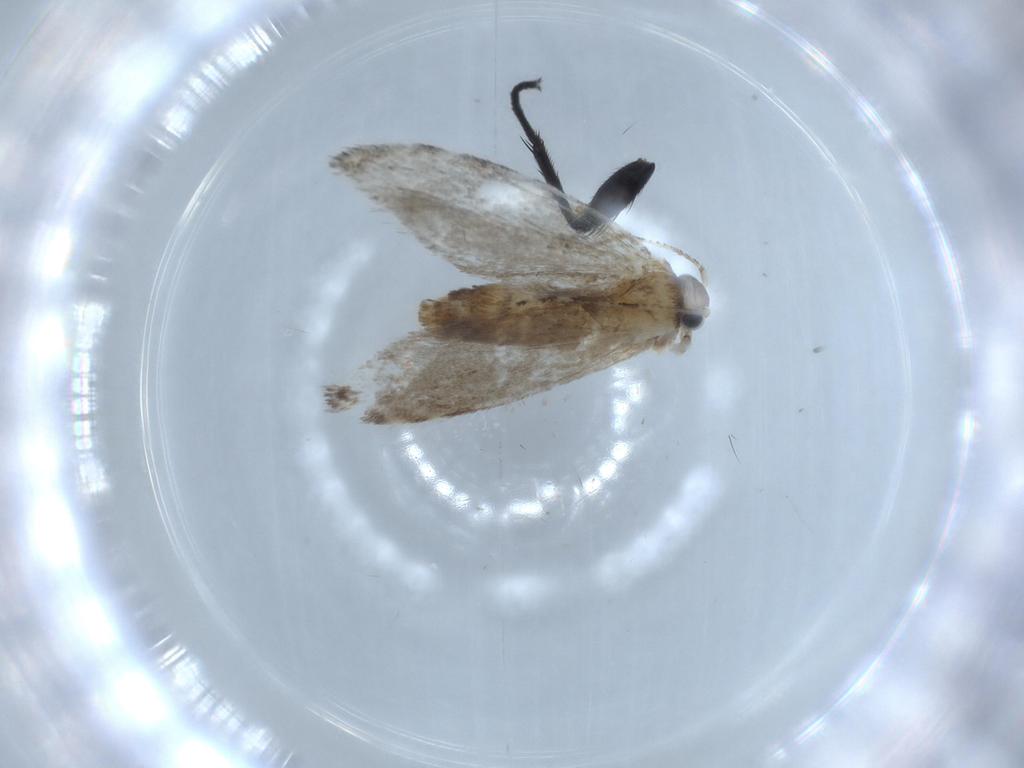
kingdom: Animalia
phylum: Arthropoda
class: Insecta
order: Lepidoptera
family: Tineidae
